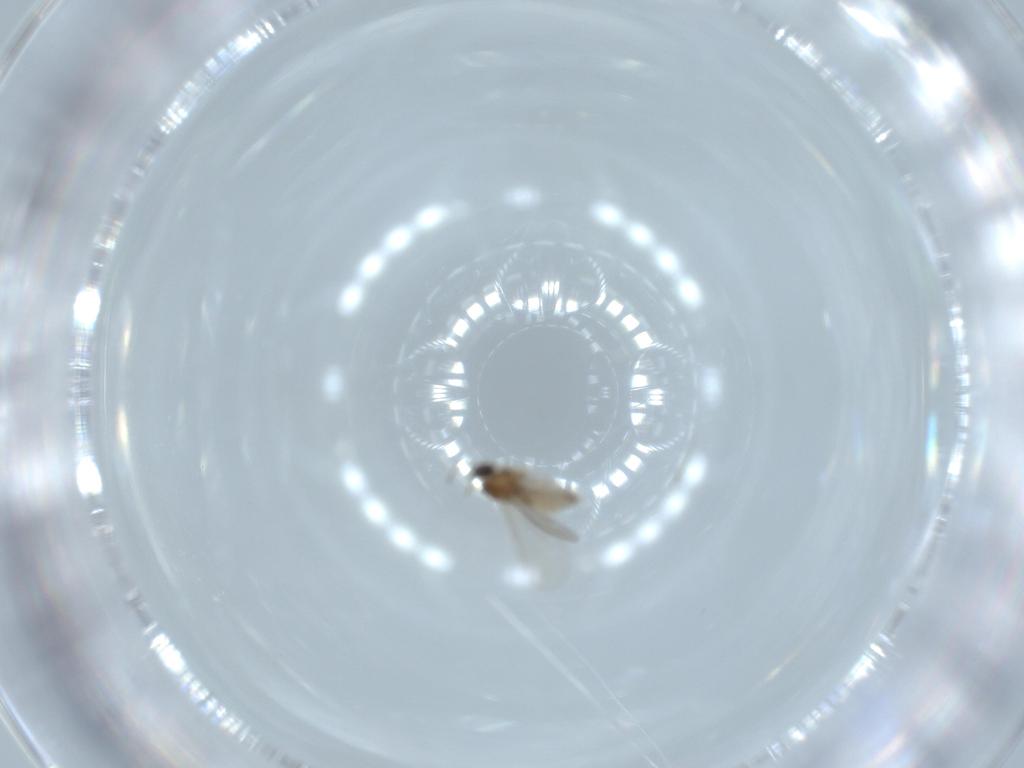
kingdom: Animalia
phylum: Arthropoda
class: Insecta
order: Diptera
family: Cecidomyiidae
